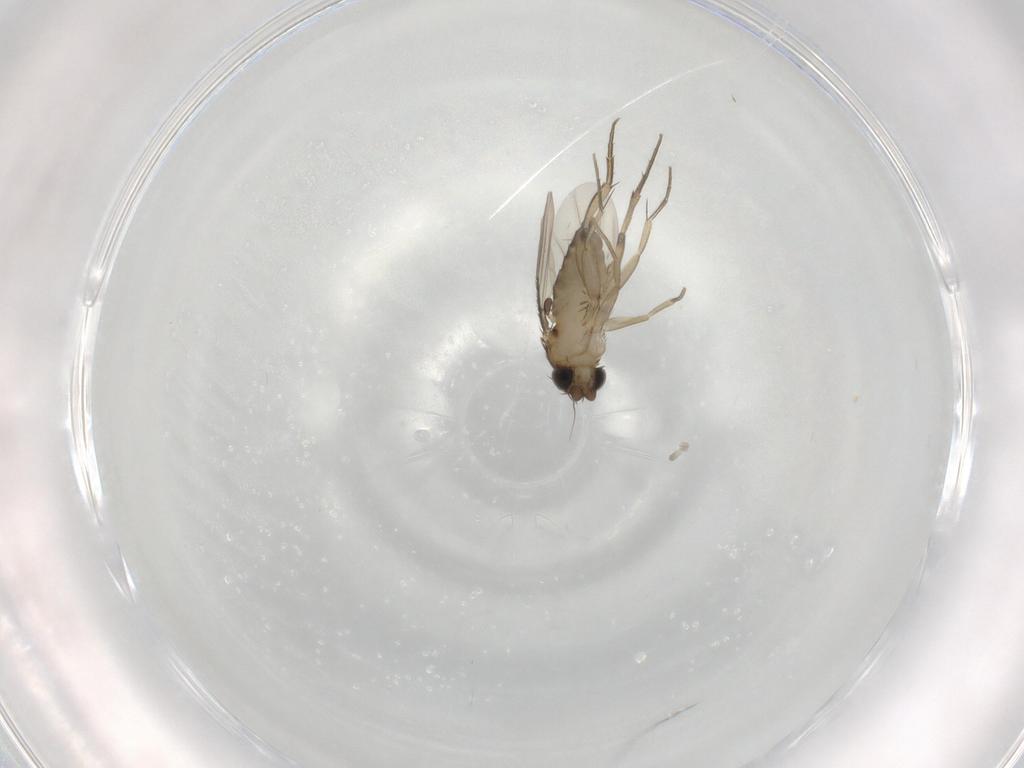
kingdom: Animalia
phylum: Arthropoda
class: Insecta
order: Diptera
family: Phoridae
